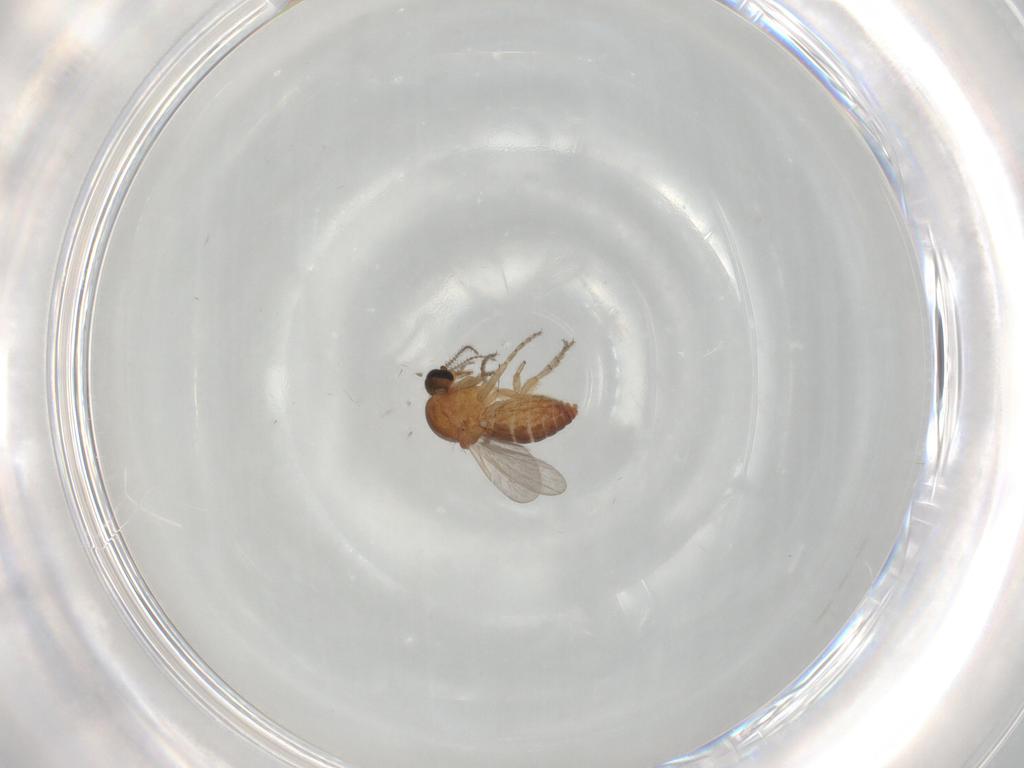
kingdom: Animalia
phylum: Arthropoda
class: Insecta
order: Diptera
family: Ceratopogonidae
